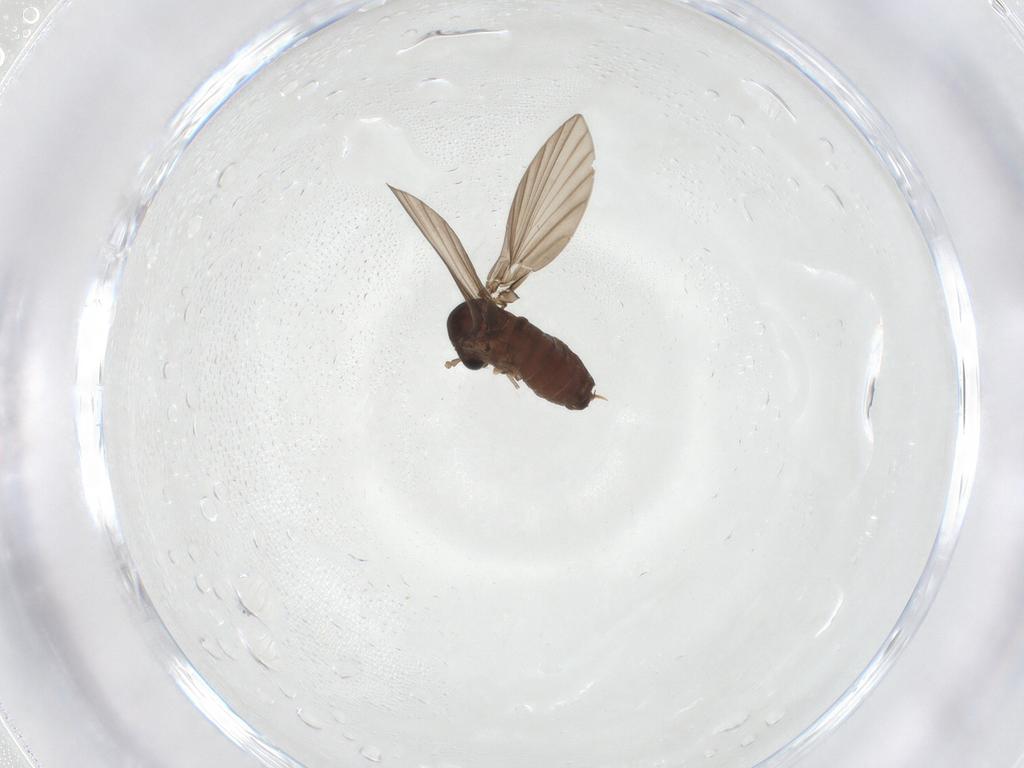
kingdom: Animalia
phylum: Arthropoda
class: Insecta
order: Diptera
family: Psychodidae
